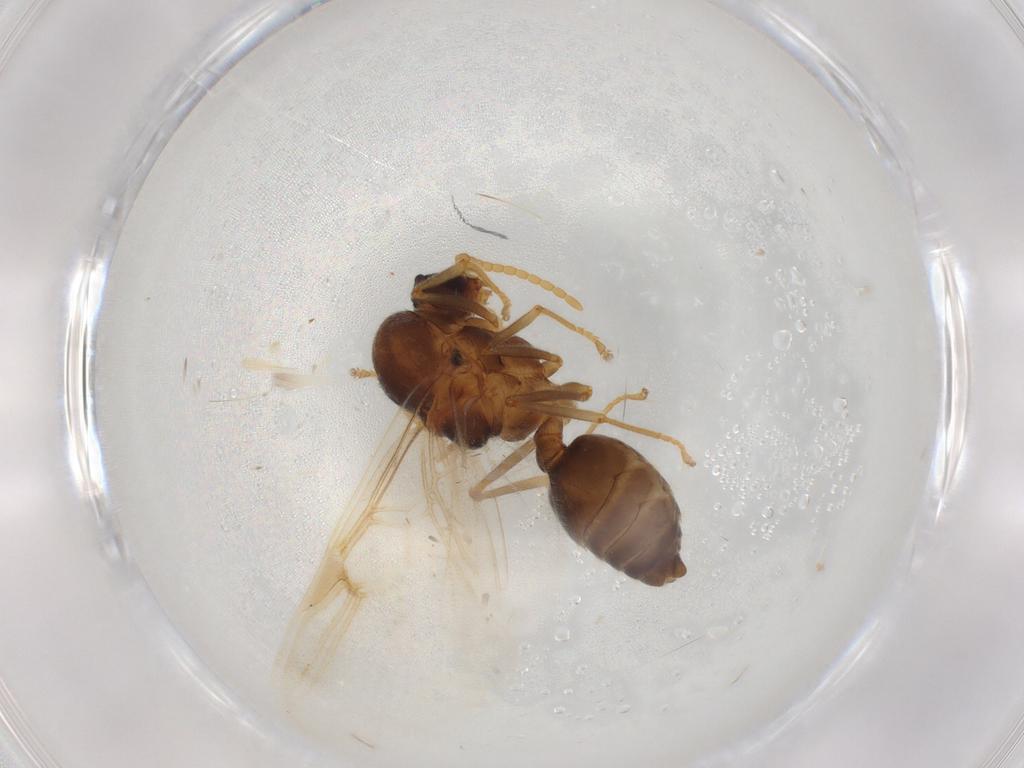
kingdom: Animalia
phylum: Arthropoda
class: Insecta
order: Hymenoptera
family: Formicidae
